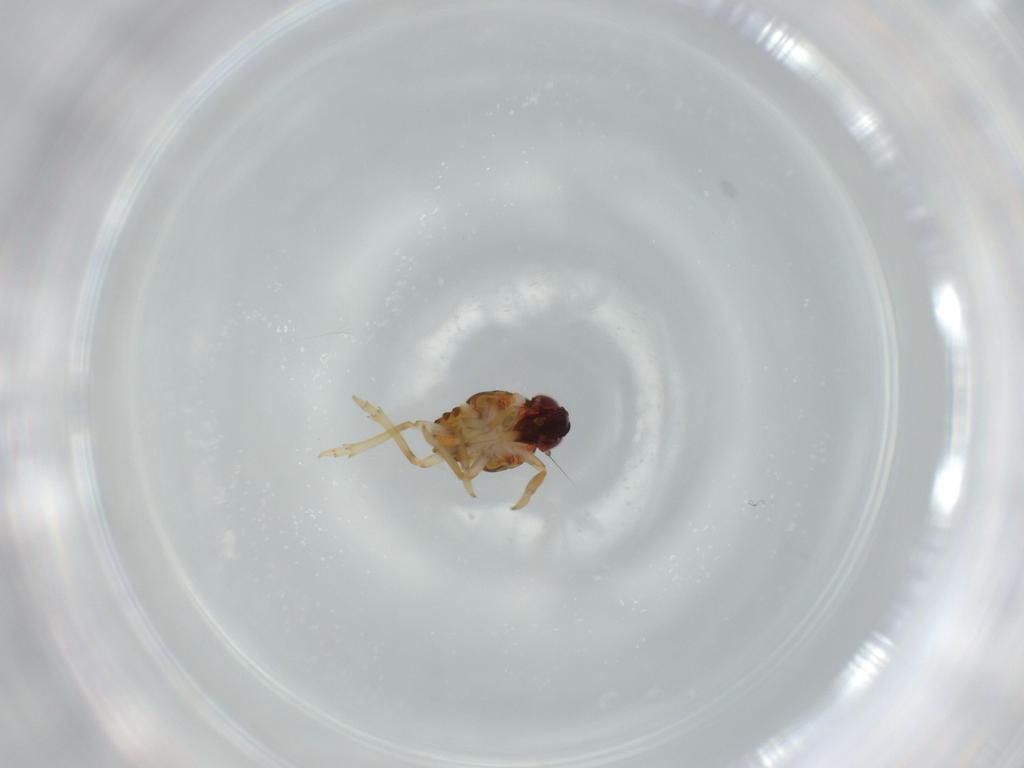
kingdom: Animalia
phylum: Arthropoda
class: Insecta
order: Hemiptera
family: Issidae
